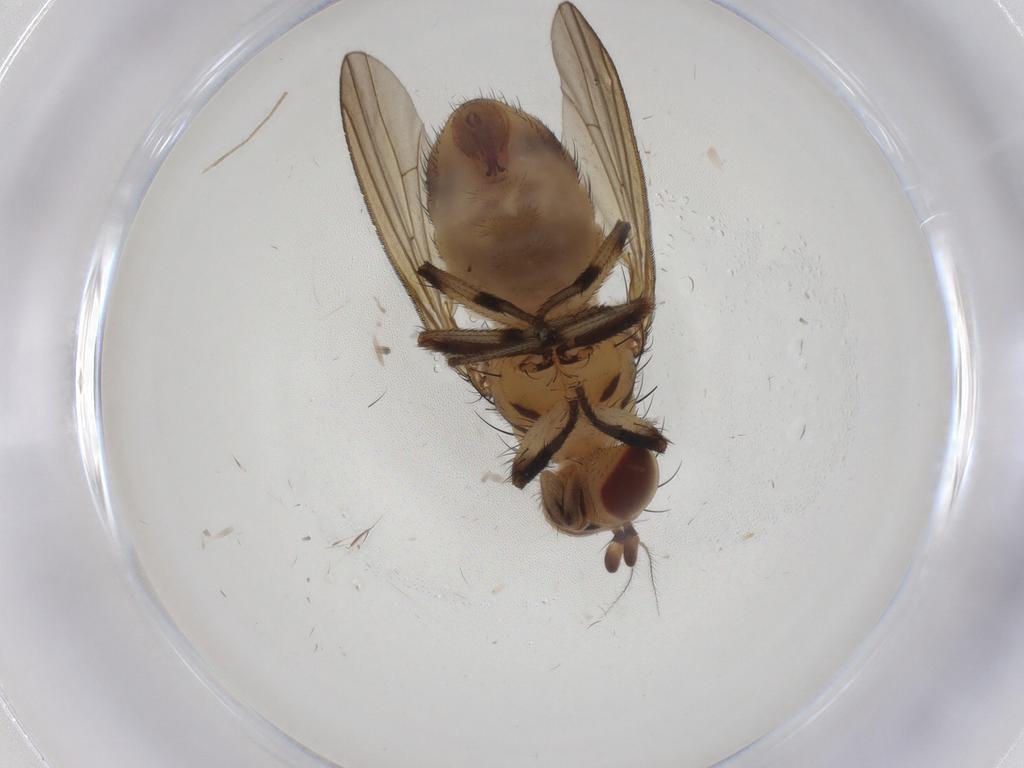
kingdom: Animalia
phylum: Arthropoda
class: Insecta
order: Diptera
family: Lauxaniidae
